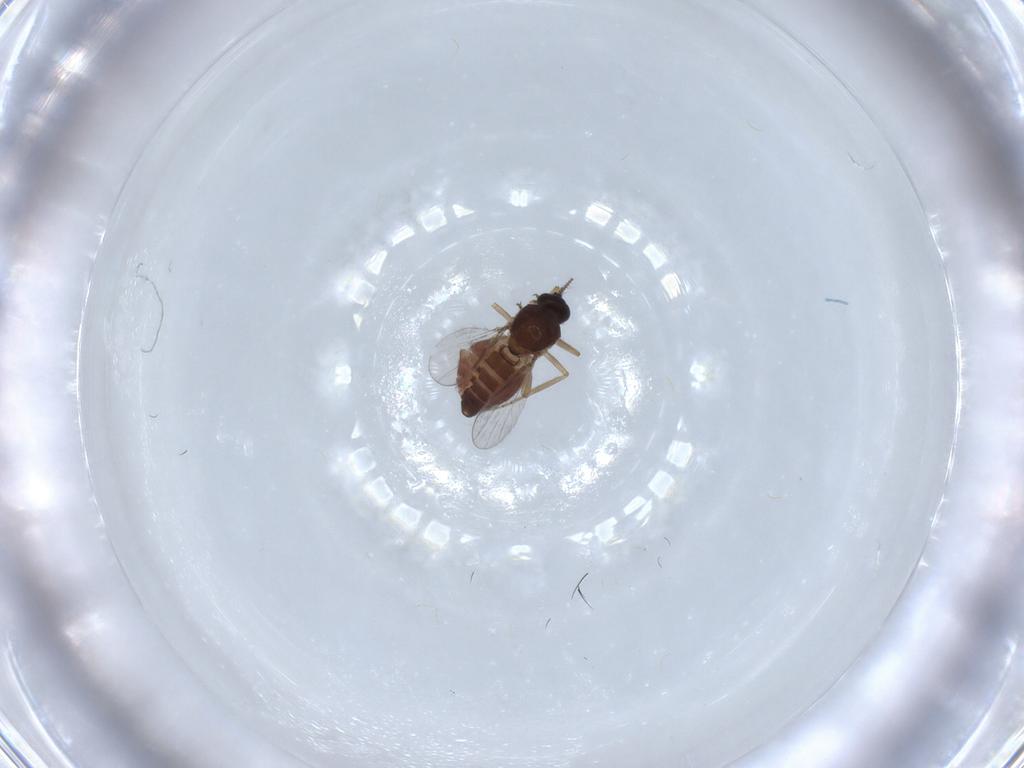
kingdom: Animalia
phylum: Arthropoda
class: Insecta
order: Diptera
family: Ceratopogonidae
